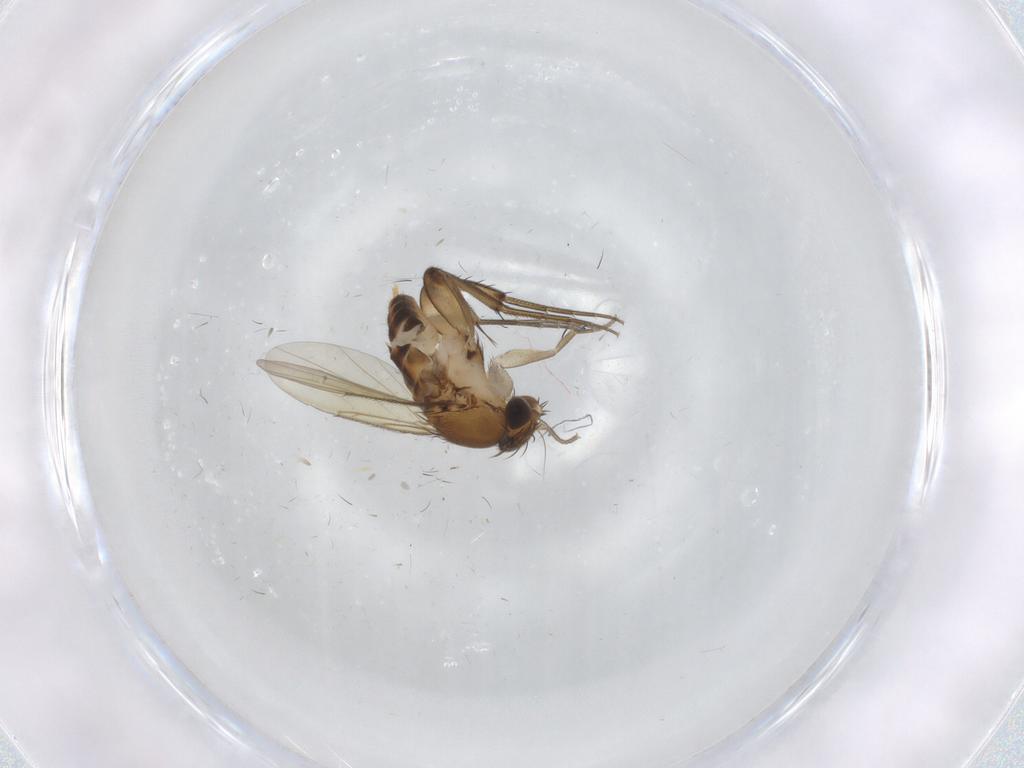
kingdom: Animalia
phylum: Arthropoda
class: Insecta
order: Diptera
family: Phoridae
